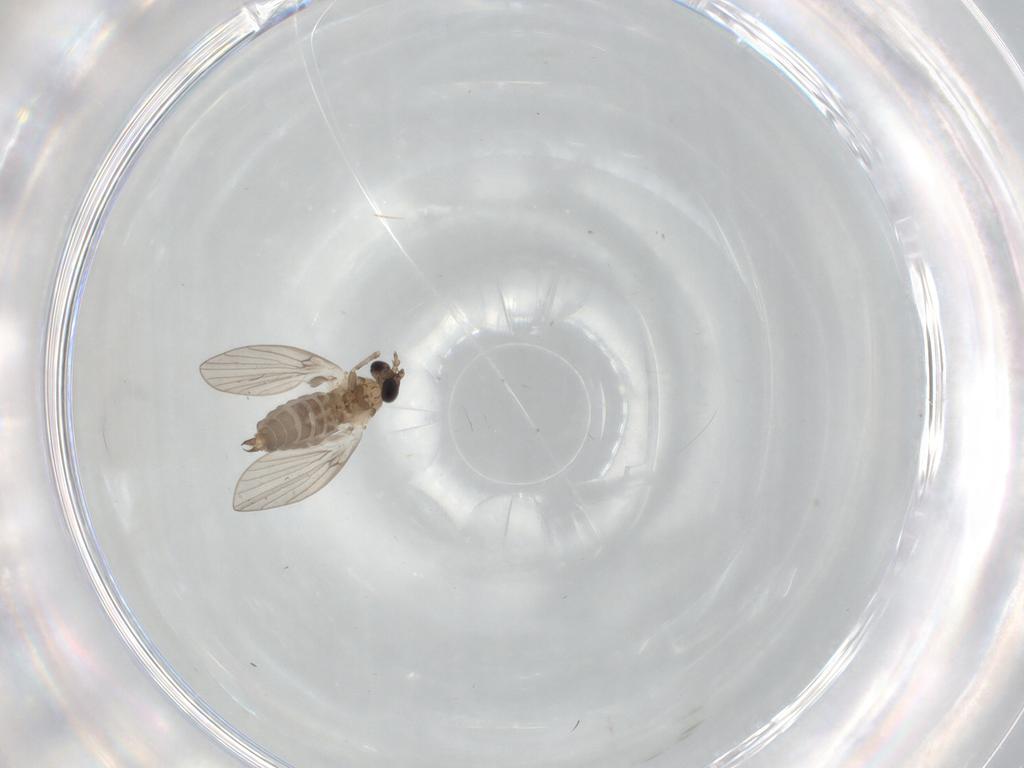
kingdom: Animalia
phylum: Arthropoda
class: Insecta
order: Diptera
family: Psychodidae
